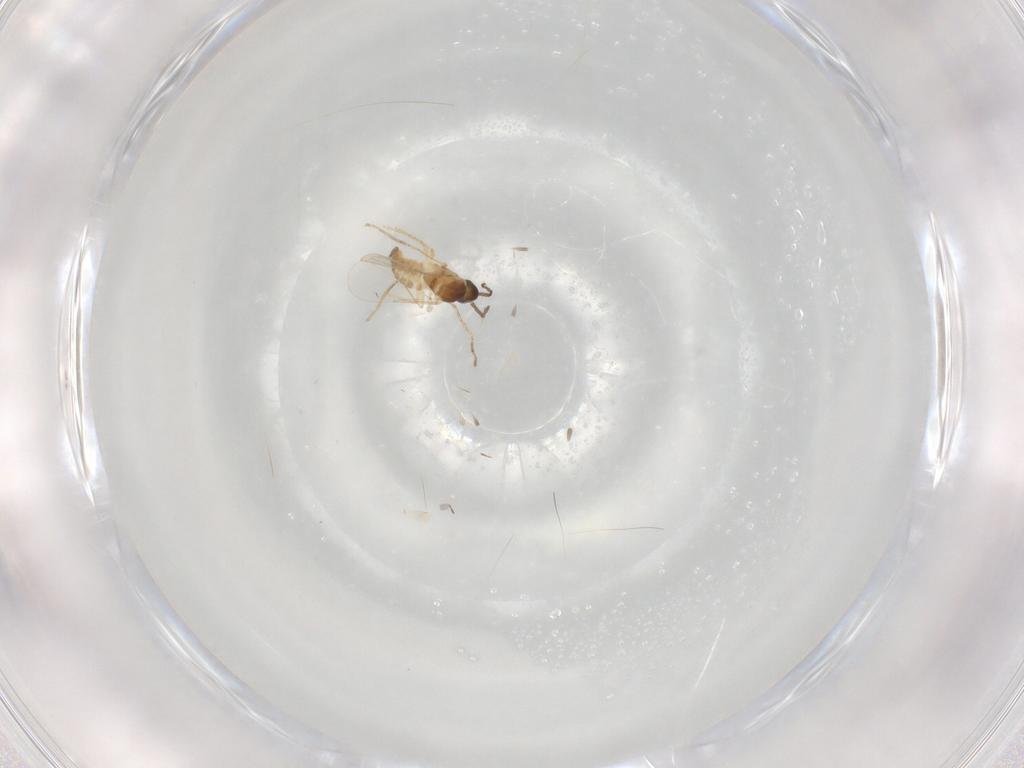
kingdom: Animalia
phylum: Arthropoda
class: Insecta
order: Diptera
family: Cecidomyiidae
